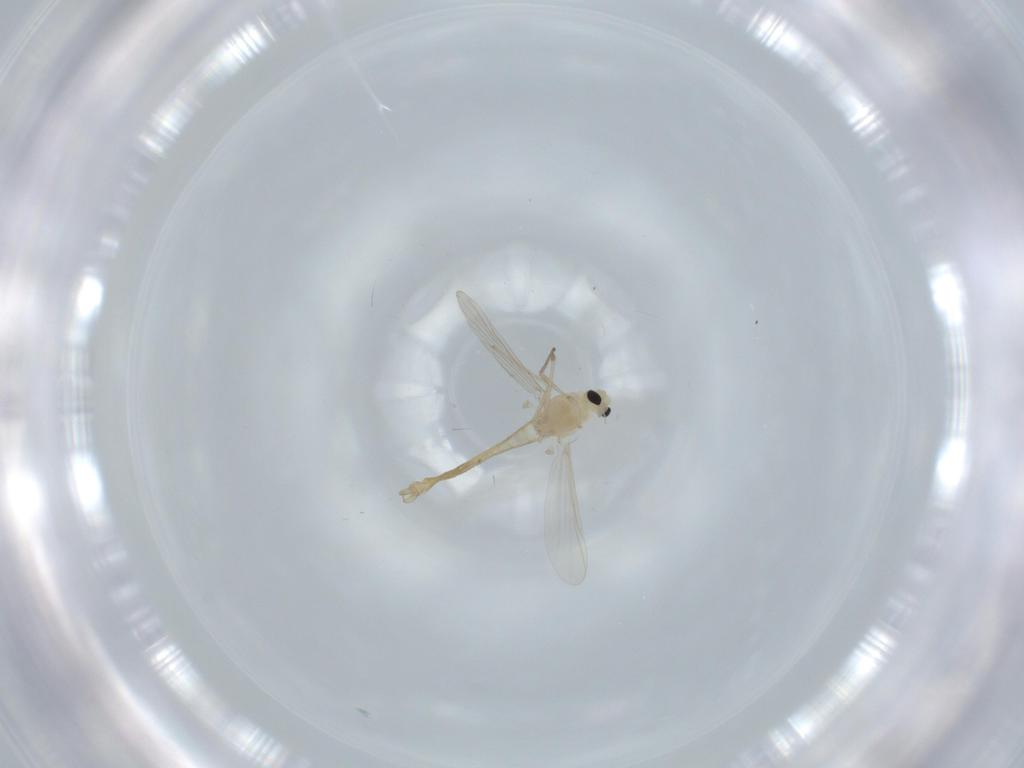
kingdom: Animalia
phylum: Arthropoda
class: Insecta
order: Diptera
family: Chironomidae
